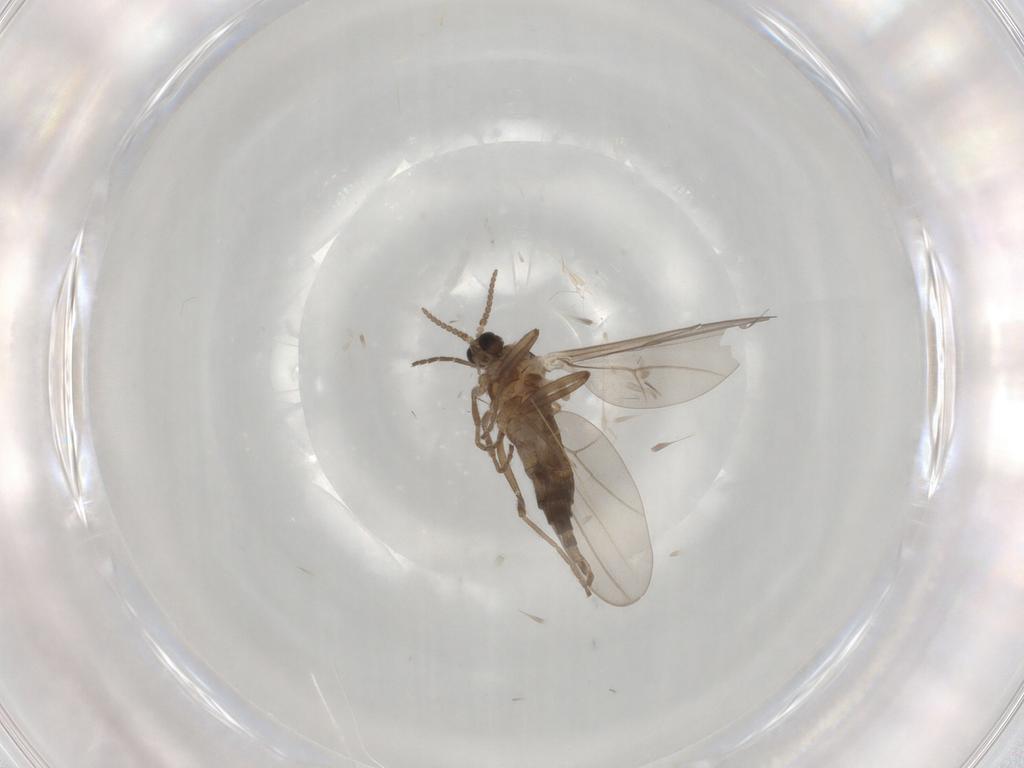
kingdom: Animalia
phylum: Arthropoda
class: Insecta
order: Diptera
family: Cecidomyiidae
